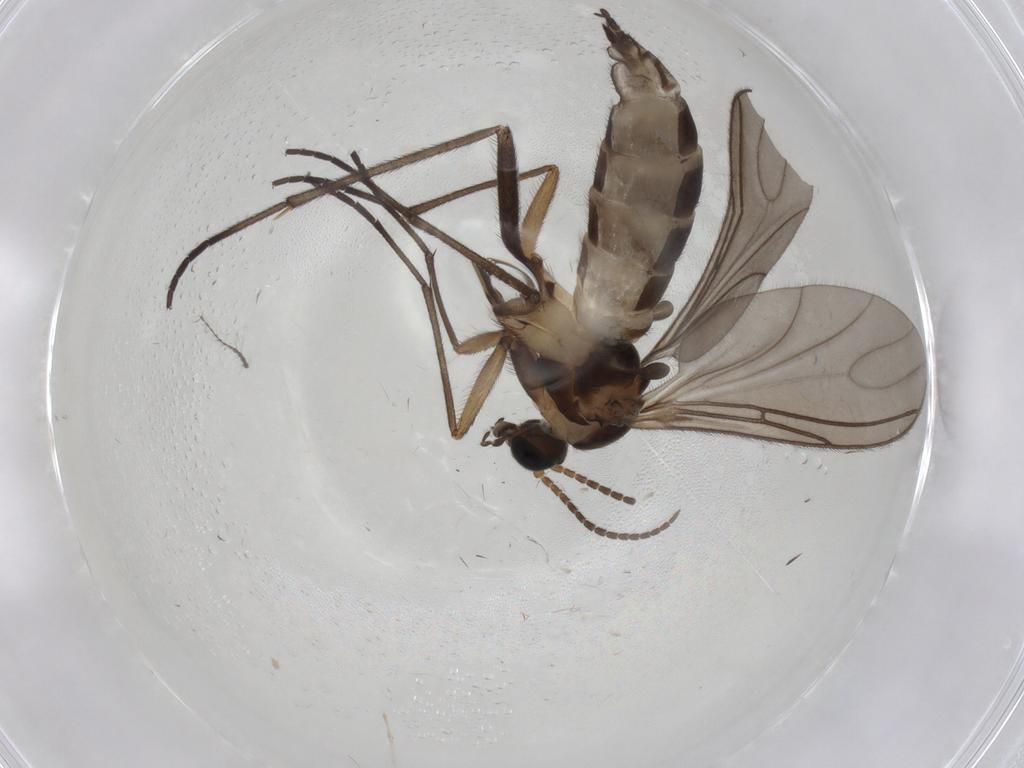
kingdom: Animalia
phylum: Arthropoda
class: Insecta
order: Diptera
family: Sciaridae
